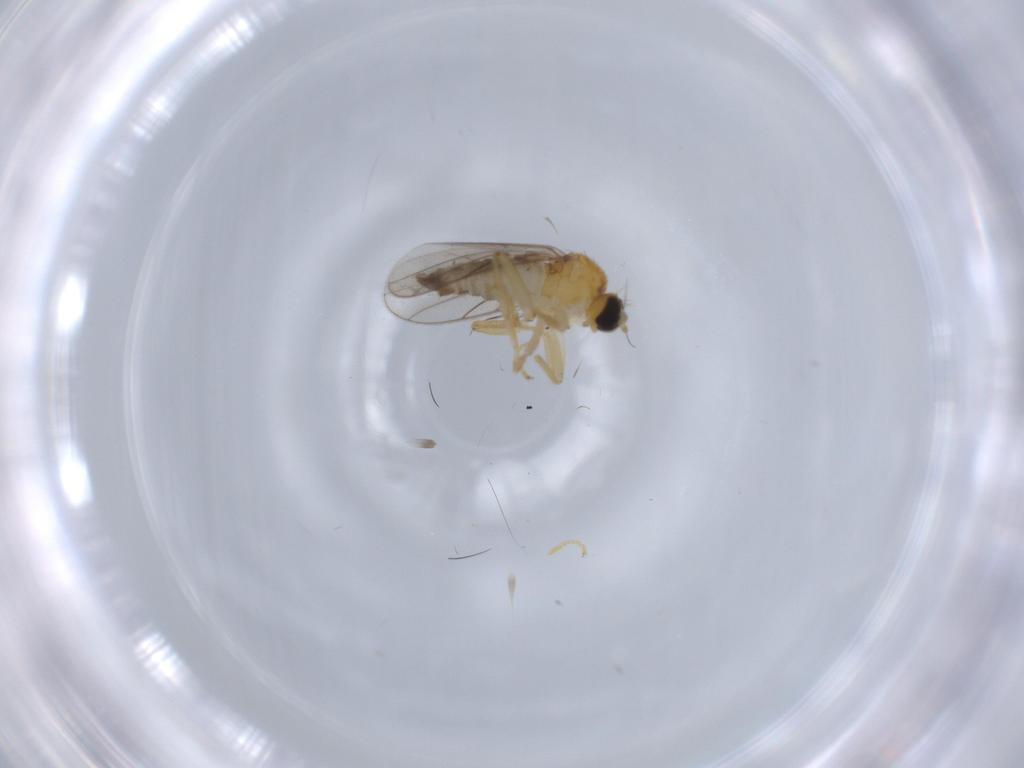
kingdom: Animalia
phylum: Arthropoda
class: Insecta
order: Diptera
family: Hybotidae
